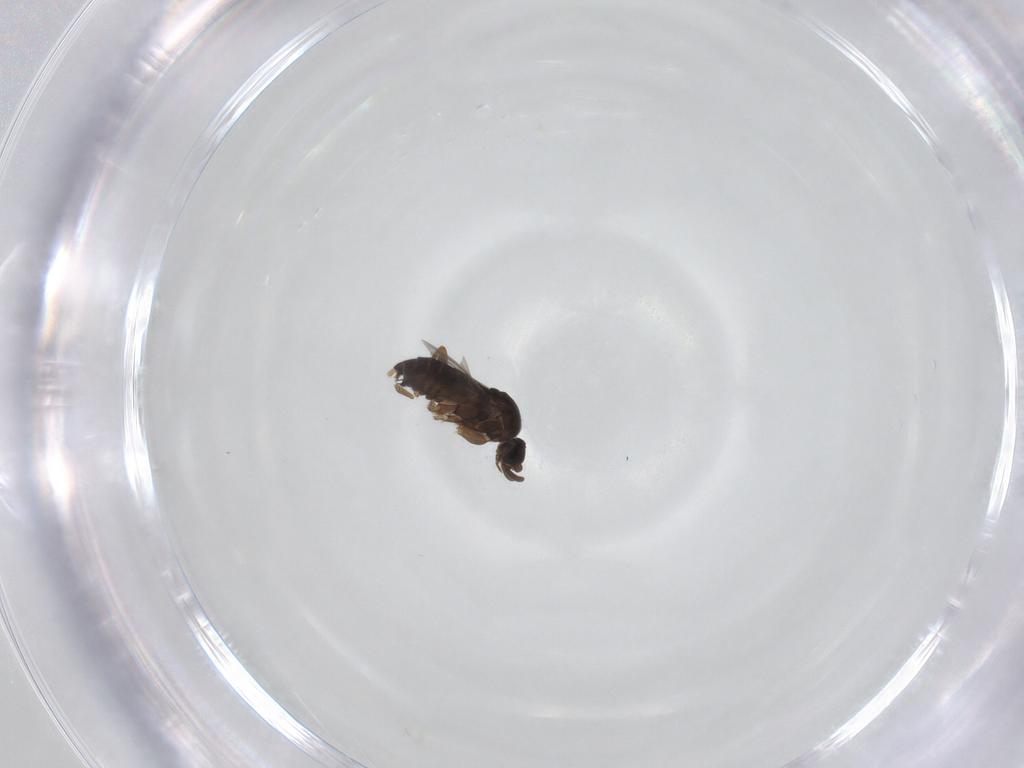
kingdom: Animalia
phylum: Arthropoda
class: Insecta
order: Diptera
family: Phoridae
